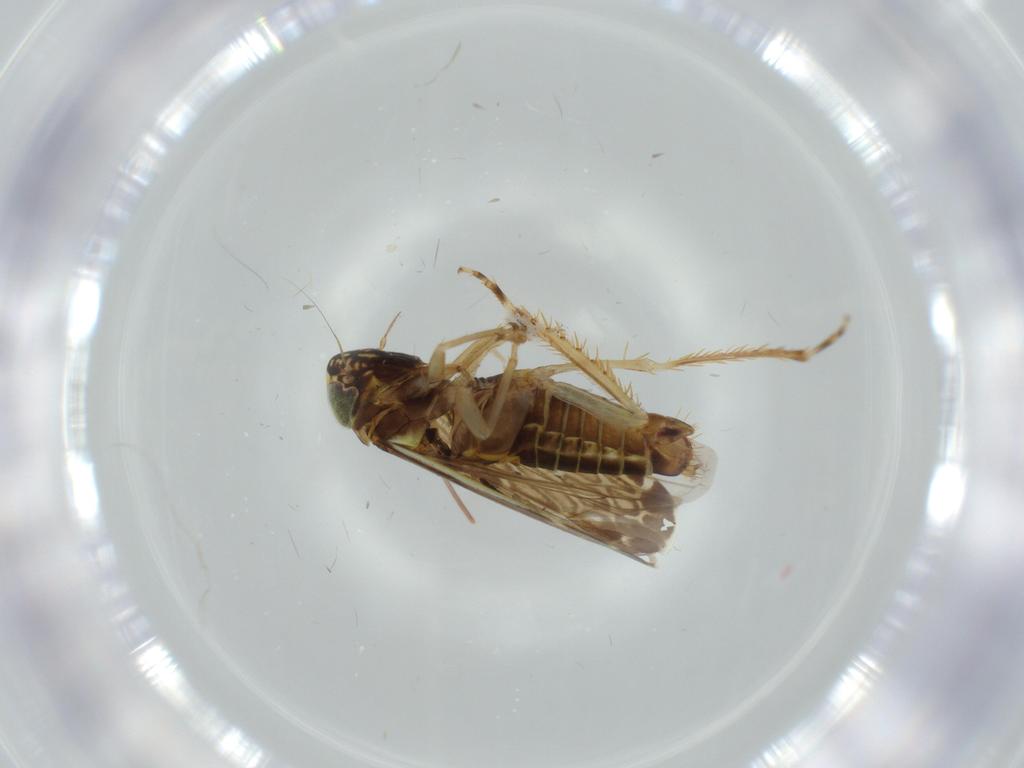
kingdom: Animalia
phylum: Arthropoda
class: Insecta
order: Hemiptera
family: Cicadellidae
